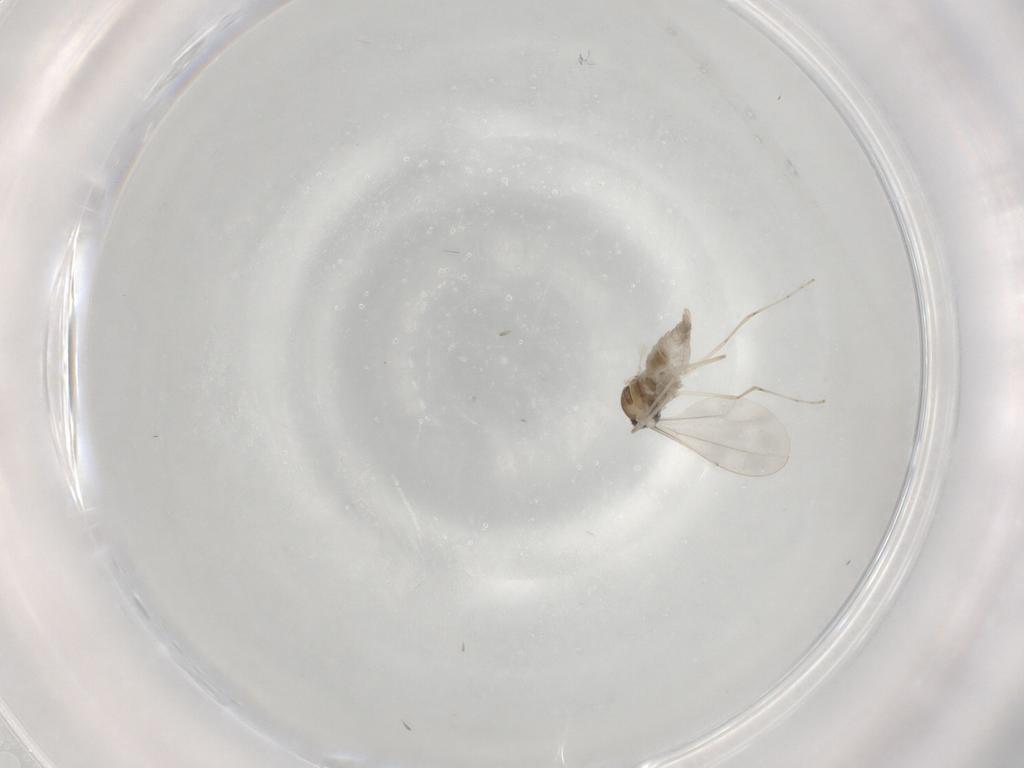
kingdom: Animalia
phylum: Arthropoda
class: Insecta
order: Diptera
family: Cecidomyiidae
